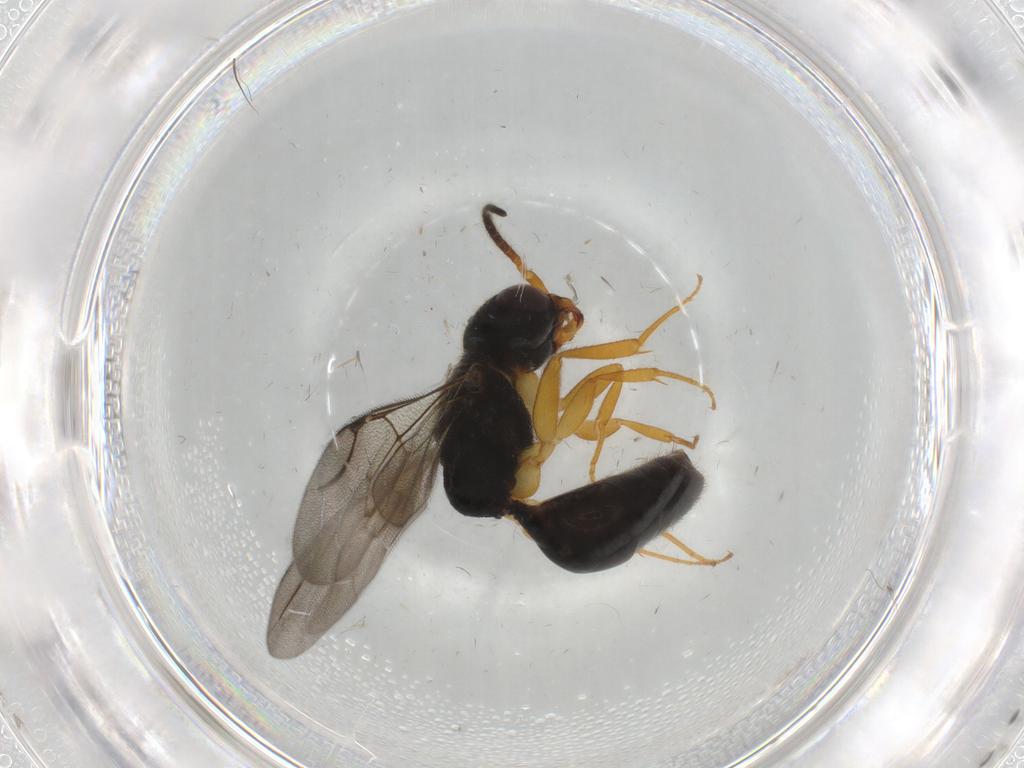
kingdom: Animalia
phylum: Arthropoda
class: Insecta
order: Hymenoptera
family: Bethylidae
